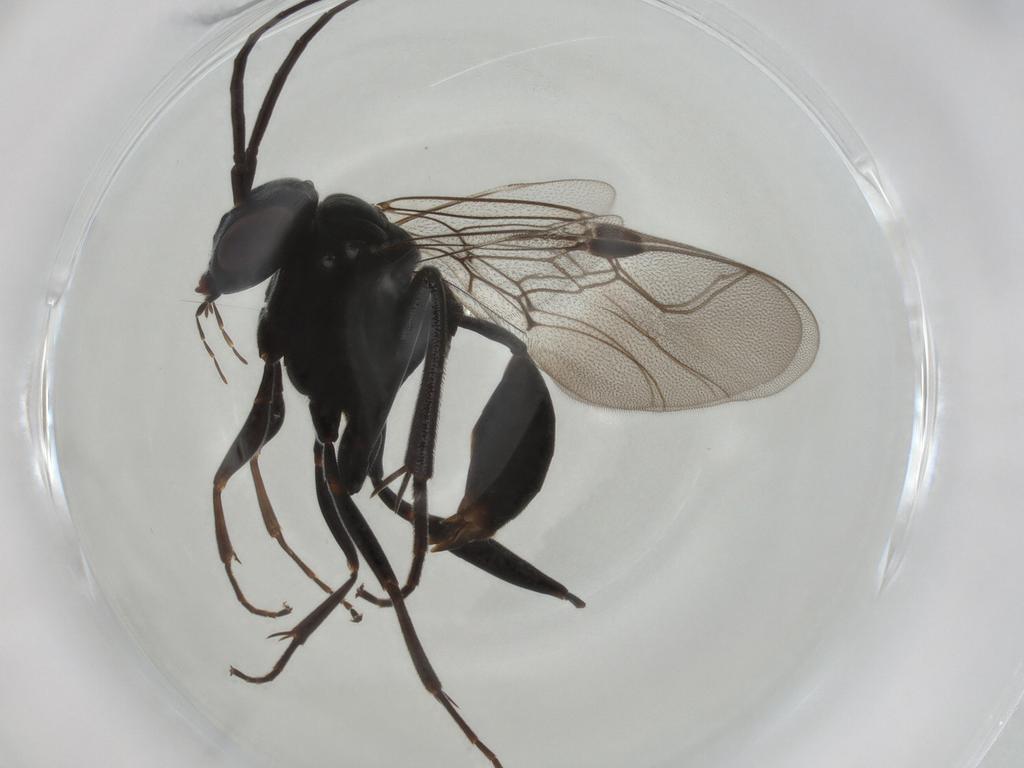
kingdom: Animalia
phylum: Arthropoda
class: Insecta
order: Hymenoptera
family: Evaniidae
